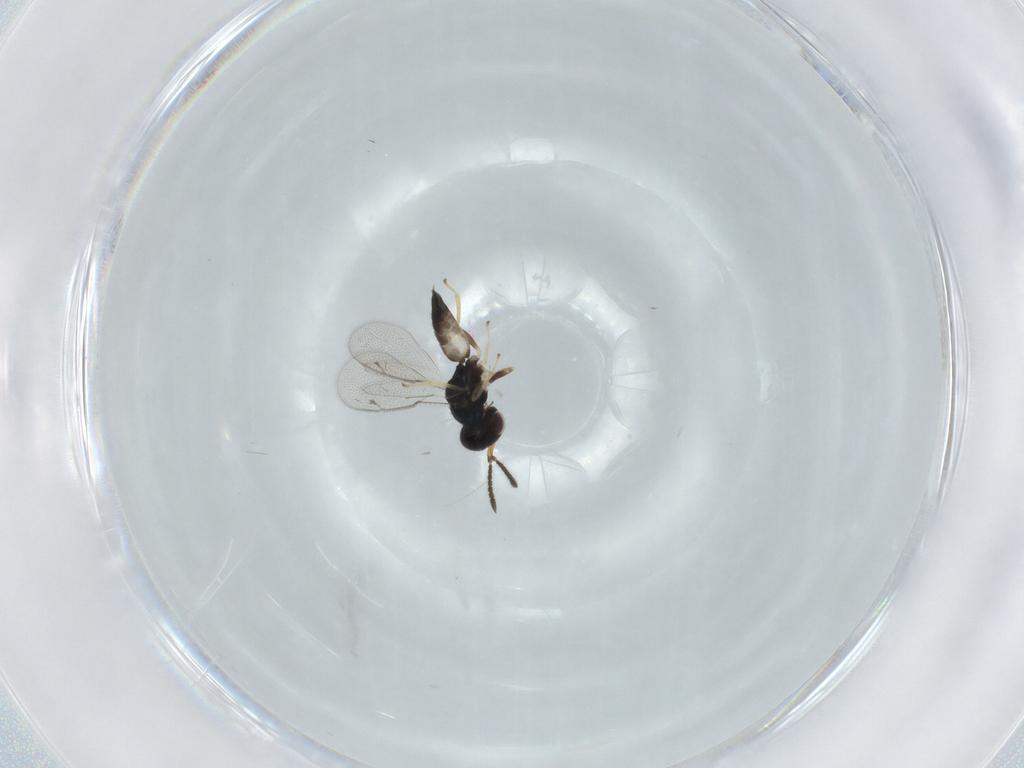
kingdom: Animalia
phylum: Arthropoda
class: Insecta
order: Hymenoptera
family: Pteromalidae
